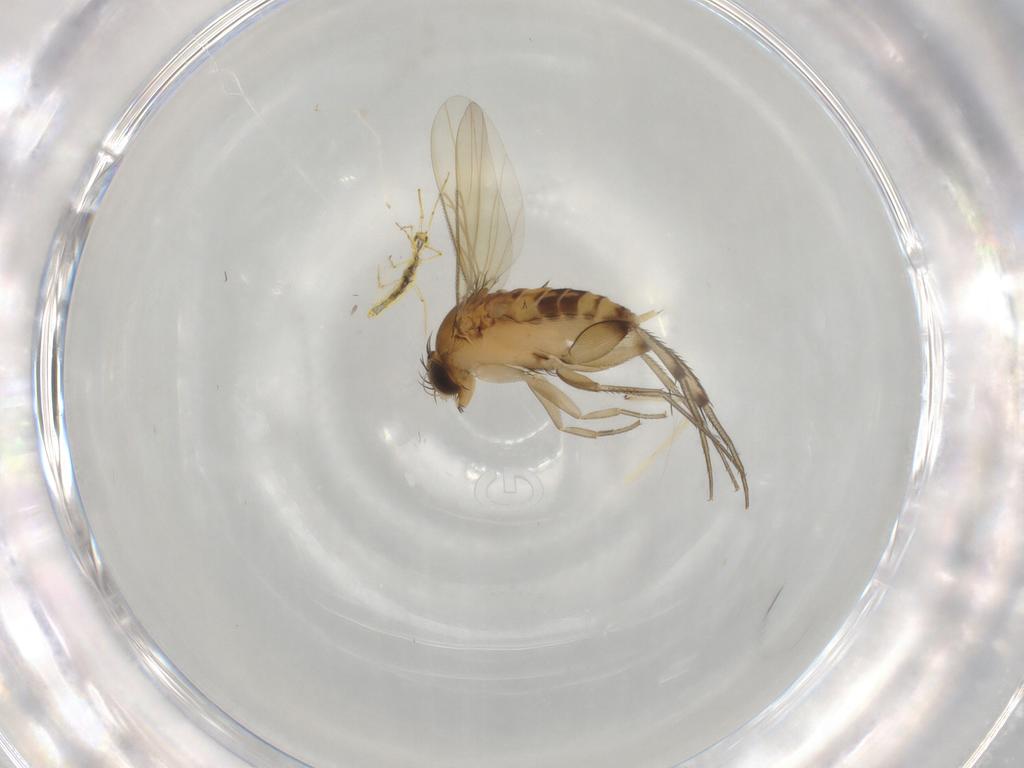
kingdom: Animalia
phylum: Arthropoda
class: Insecta
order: Diptera
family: Phoridae
